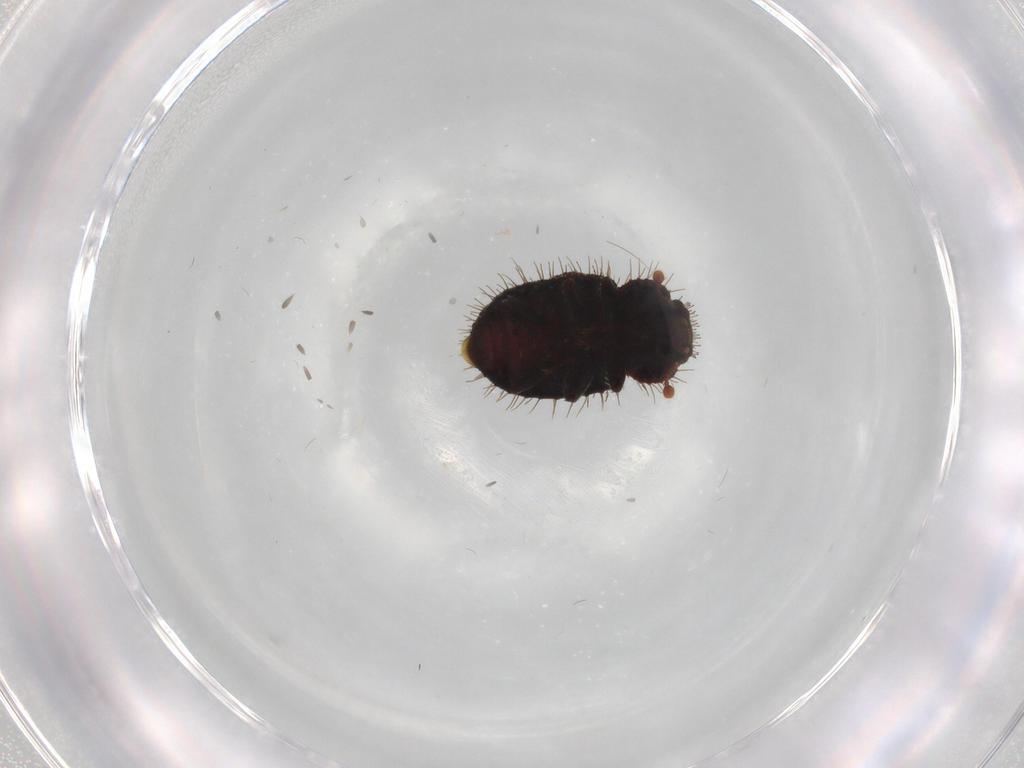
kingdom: Animalia
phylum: Arthropoda
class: Insecta
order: Coleoptera
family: Zopheridae
